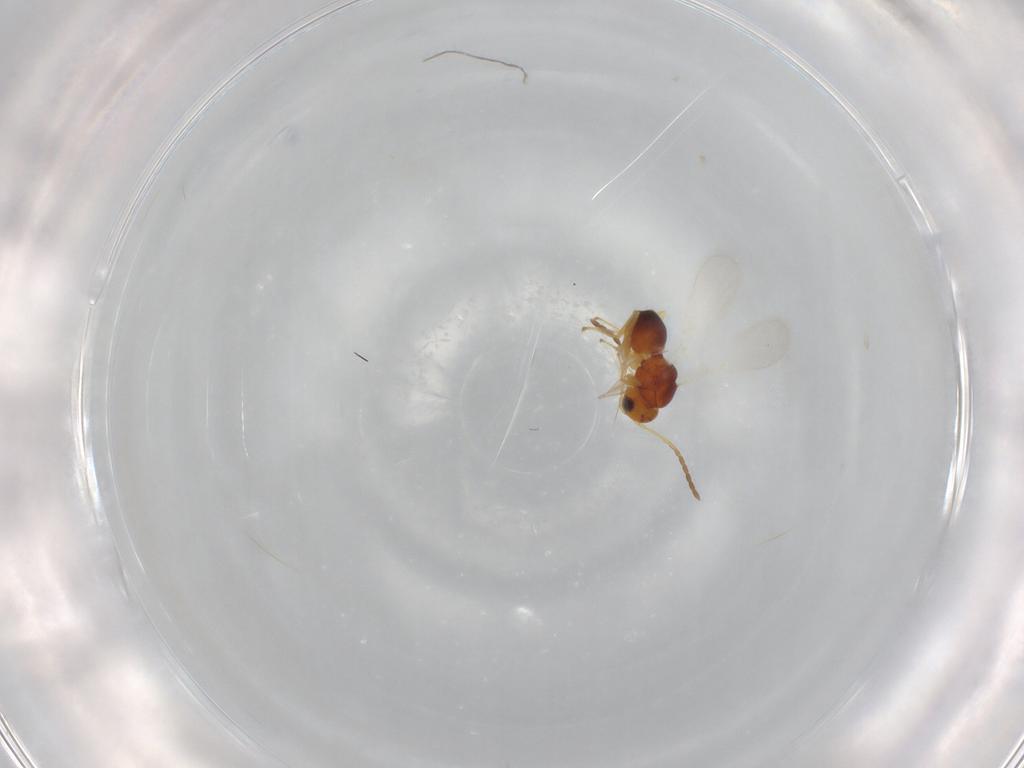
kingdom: Animalia
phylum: Arthropoda
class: Insecta
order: Hymenoptera
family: Figitidae
